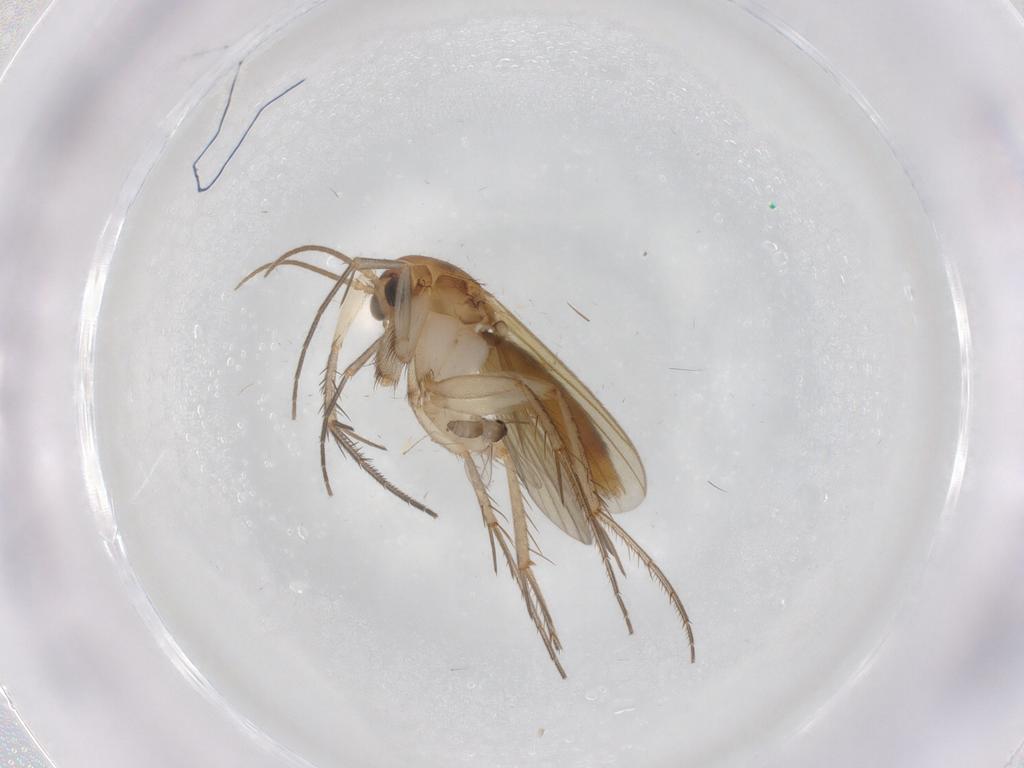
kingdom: Animalia
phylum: Arthropoda
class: Insecta
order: Diptera
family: Mycetophilidae
